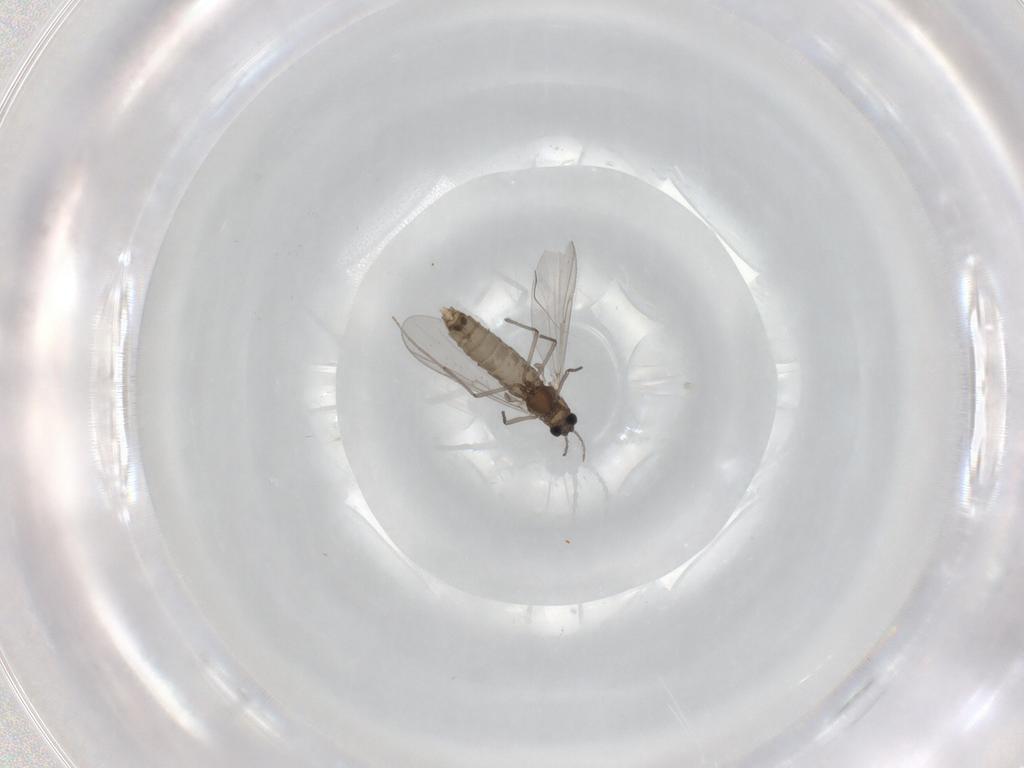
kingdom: Animalia
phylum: Arthropoda
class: Insecta
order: Diptera
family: Chironomidae
